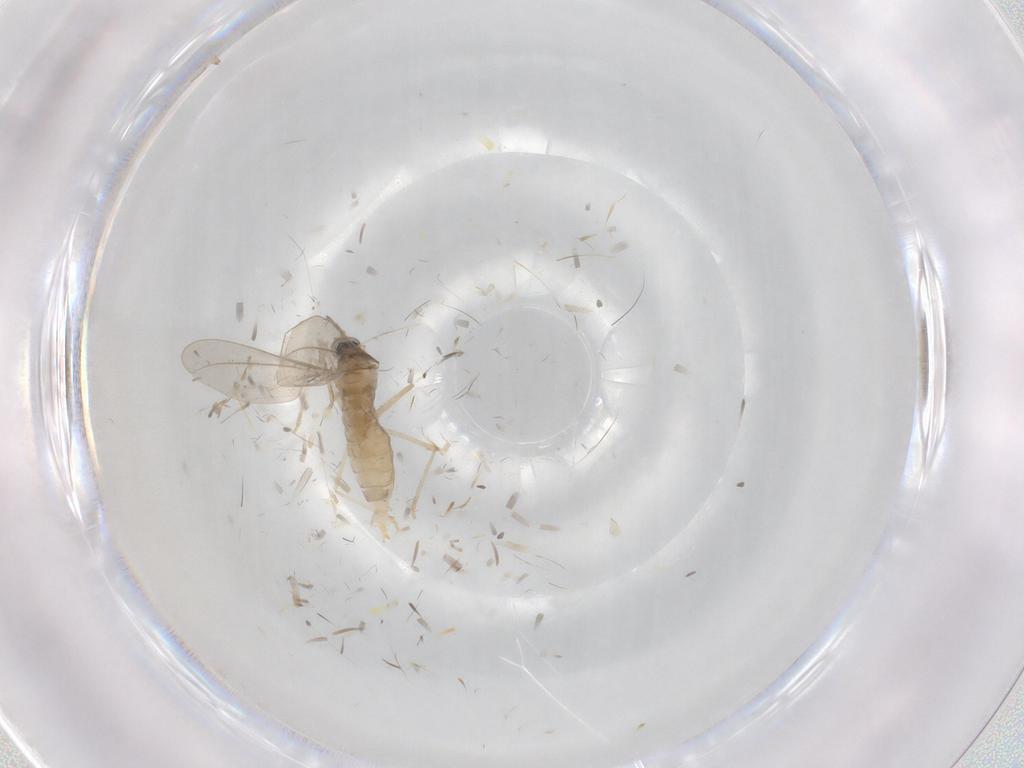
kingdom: Animalia
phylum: Arthropoda
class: Insecta
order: Diptera
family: Cecidomyiidae
